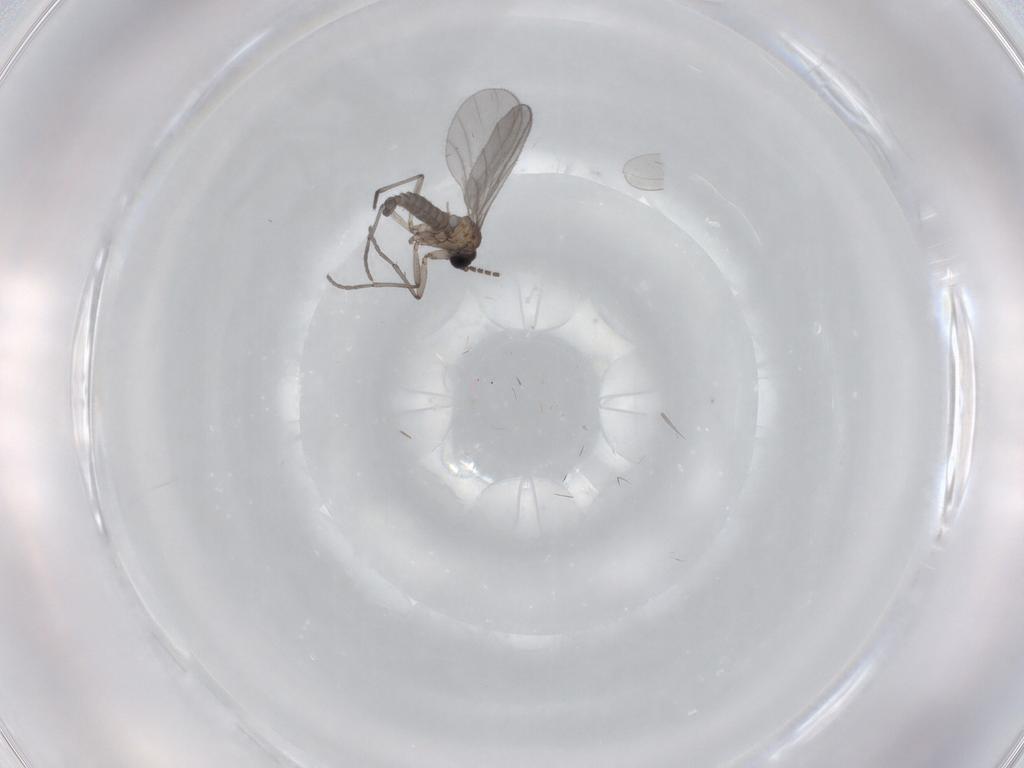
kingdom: Animalia
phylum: Arthropoda
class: Insecta
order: Diptera
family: Sciaridae
